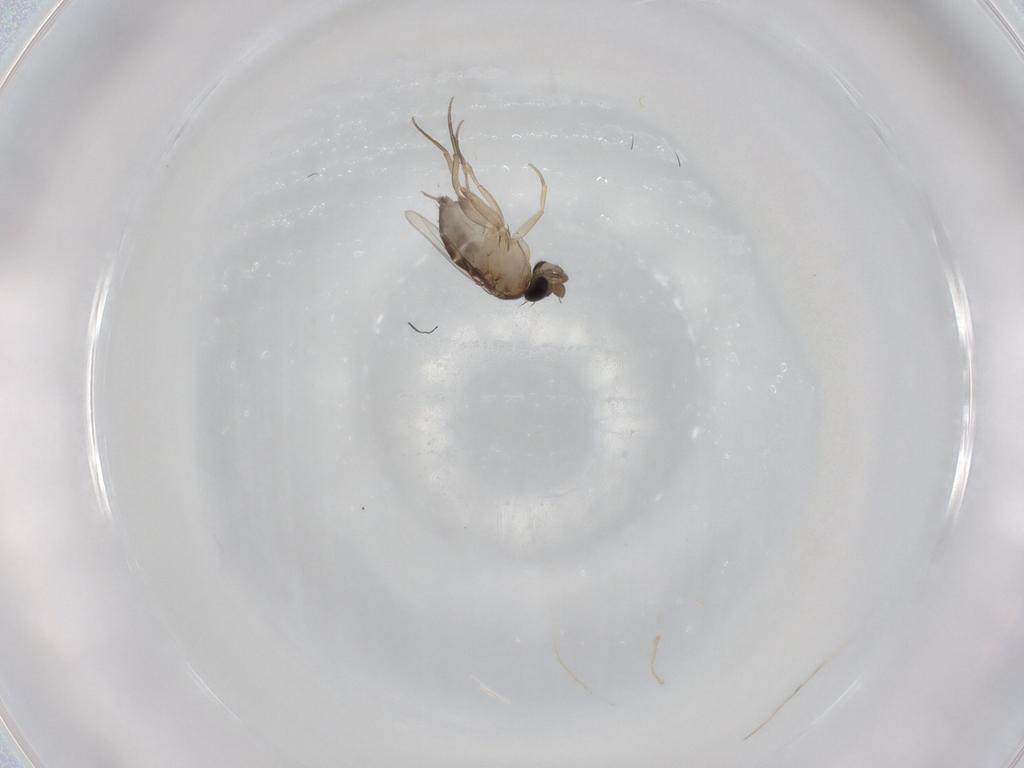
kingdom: Animalia
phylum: Arthropoda
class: Insecta
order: Diptera
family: Phoridae
